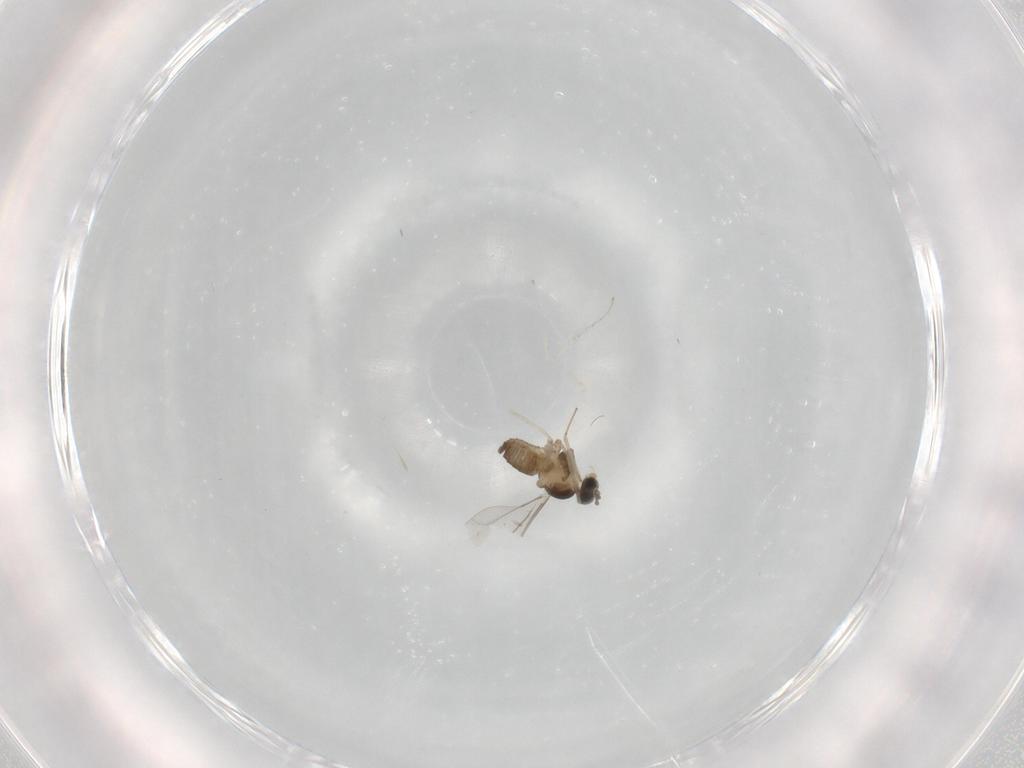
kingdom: Animalia
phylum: Arthropoda
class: Insecta
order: Diptera
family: Cecidomyiidae
